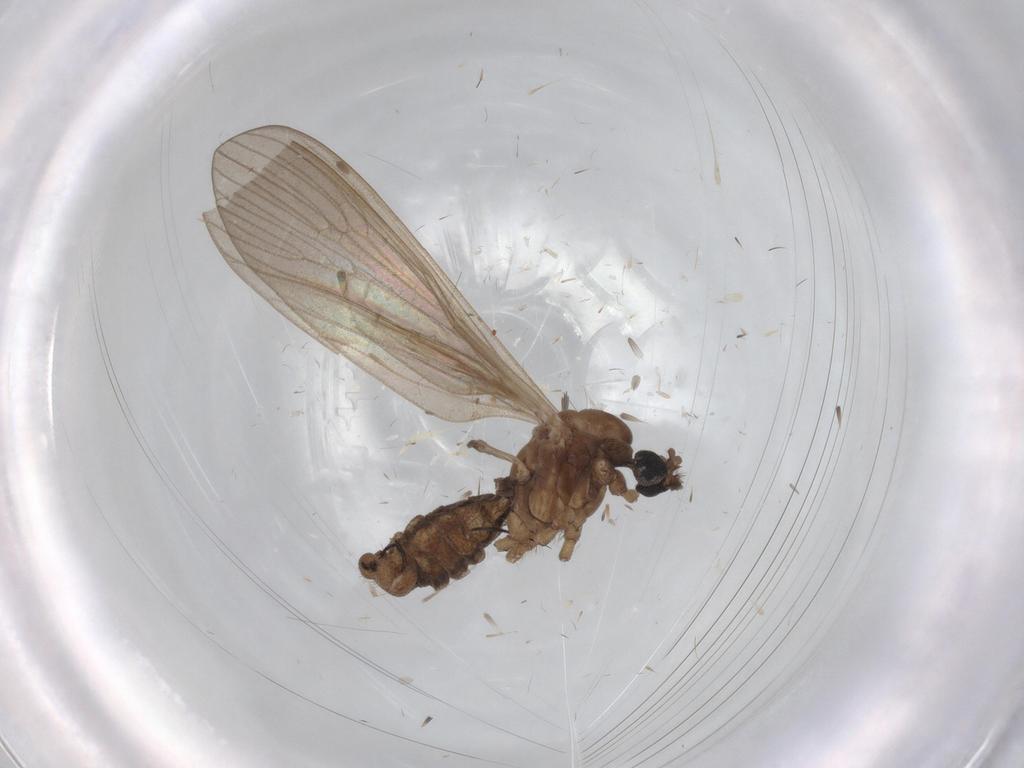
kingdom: Animalia
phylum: Arthropoda
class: Insecta
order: Diptera
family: Limoniidae
